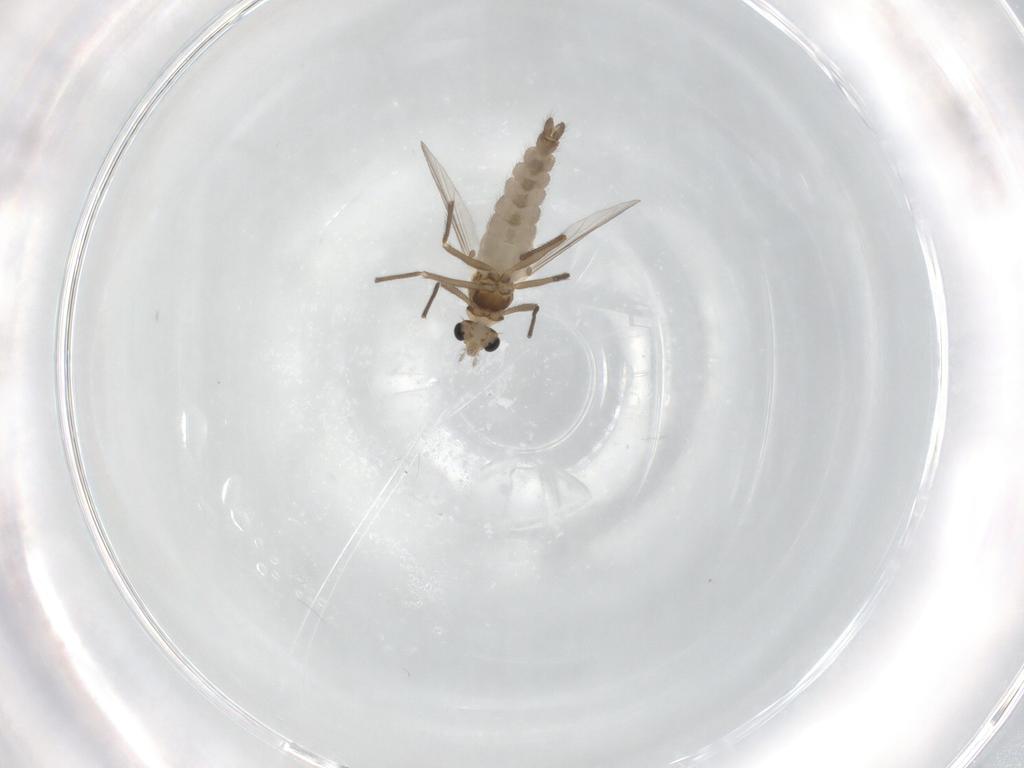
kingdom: Animalia
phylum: Arthropoda
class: Insecta
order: Diptera
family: Chironomidae
